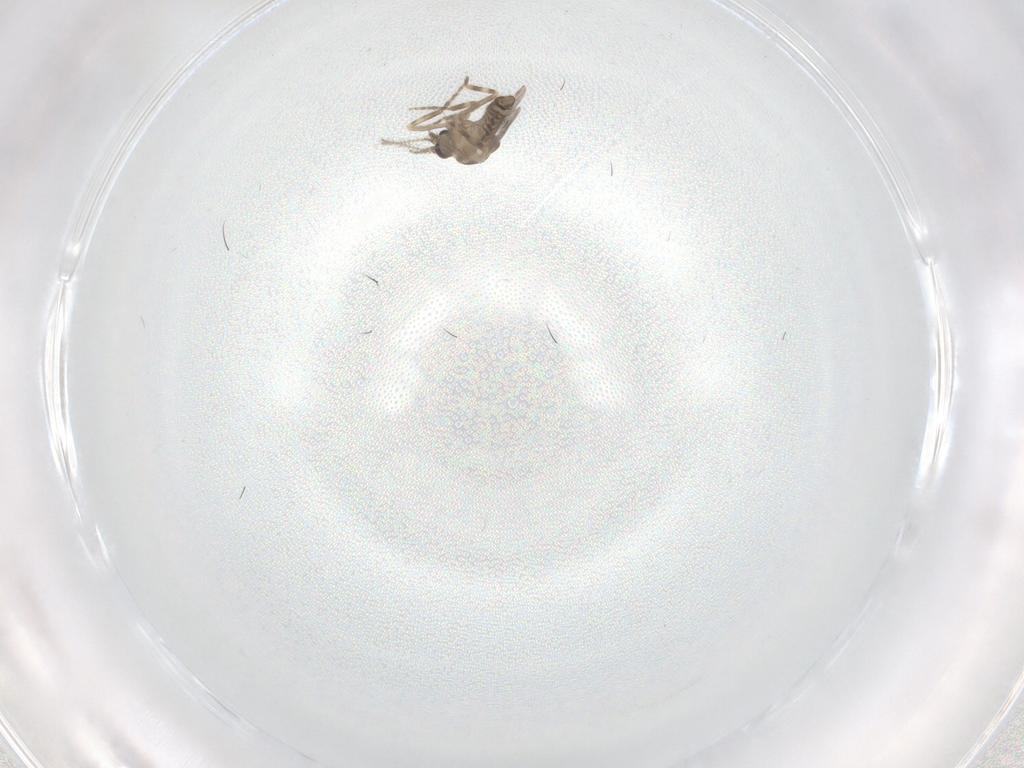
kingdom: Animalia
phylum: Arthropoda
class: Insecta
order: Diptera
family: Ceratopogonidae
